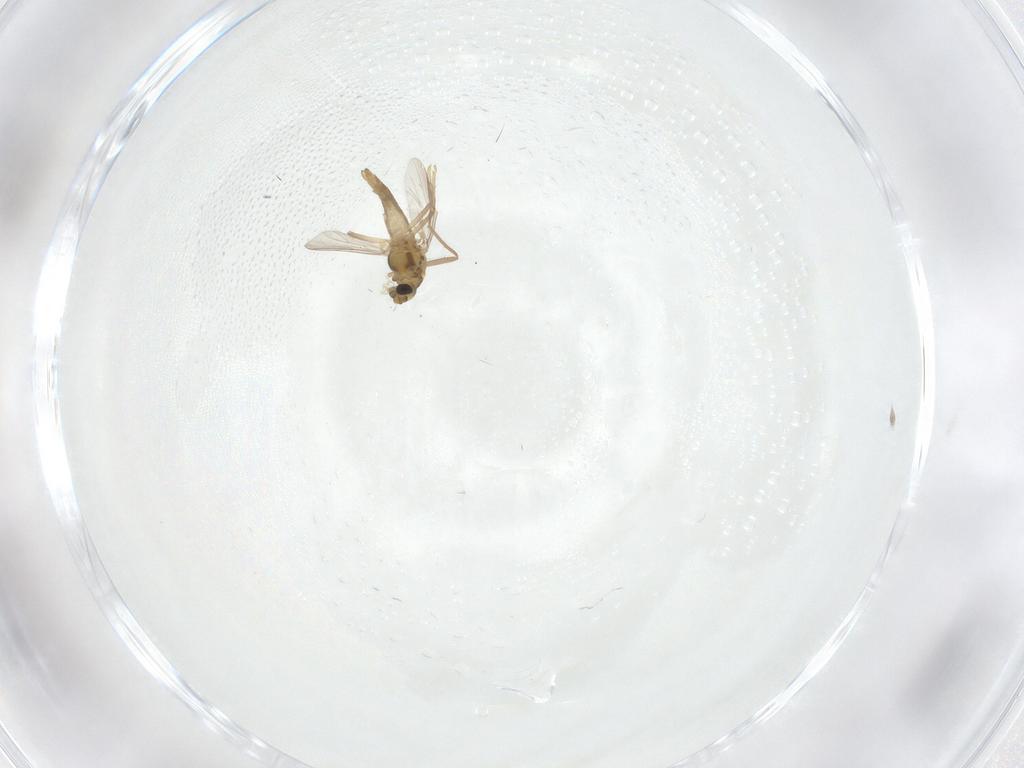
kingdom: Animalia
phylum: Arthropoda
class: Insecta
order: Diptera
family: Chironomidae
